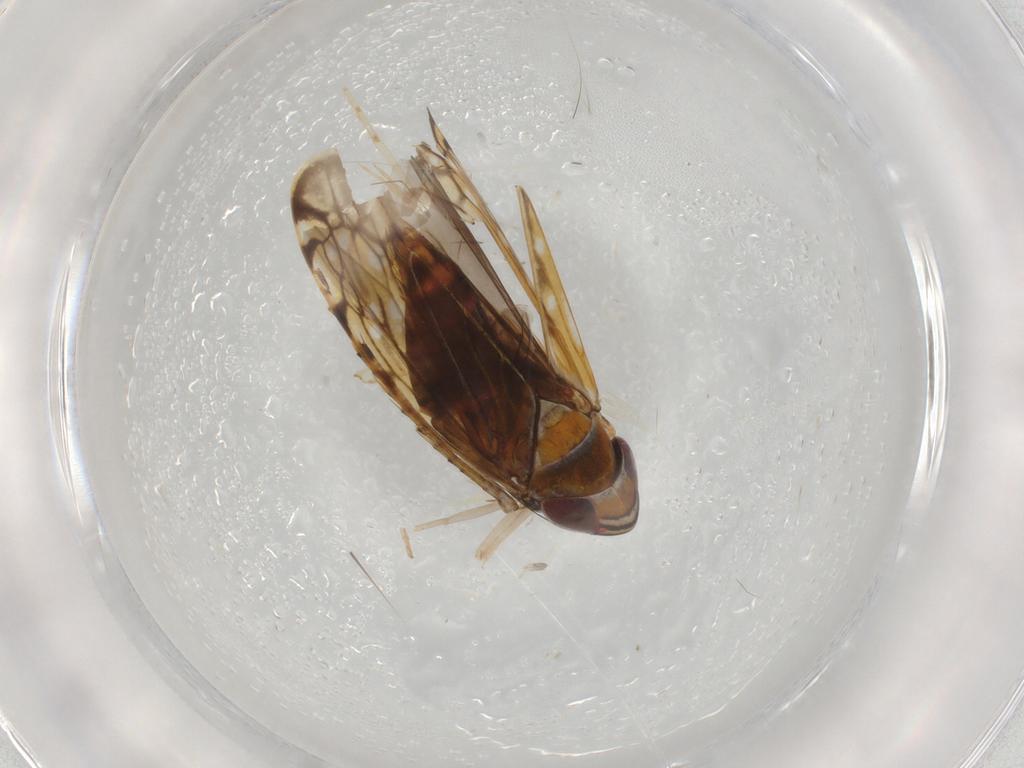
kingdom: Animalia
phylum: Arthropoda
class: Insecta
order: Hemiptera
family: Cicadellidae
